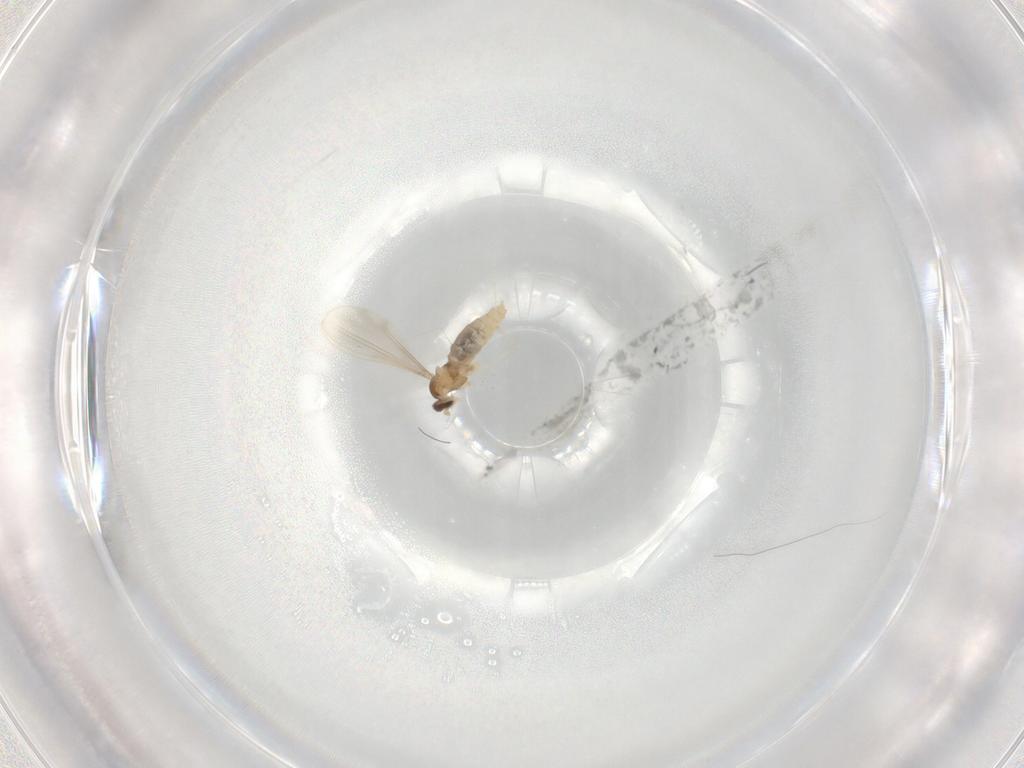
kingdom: Animalia
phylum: Arthropoda
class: Insecta
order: Diptera
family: Cecidomyiidae
